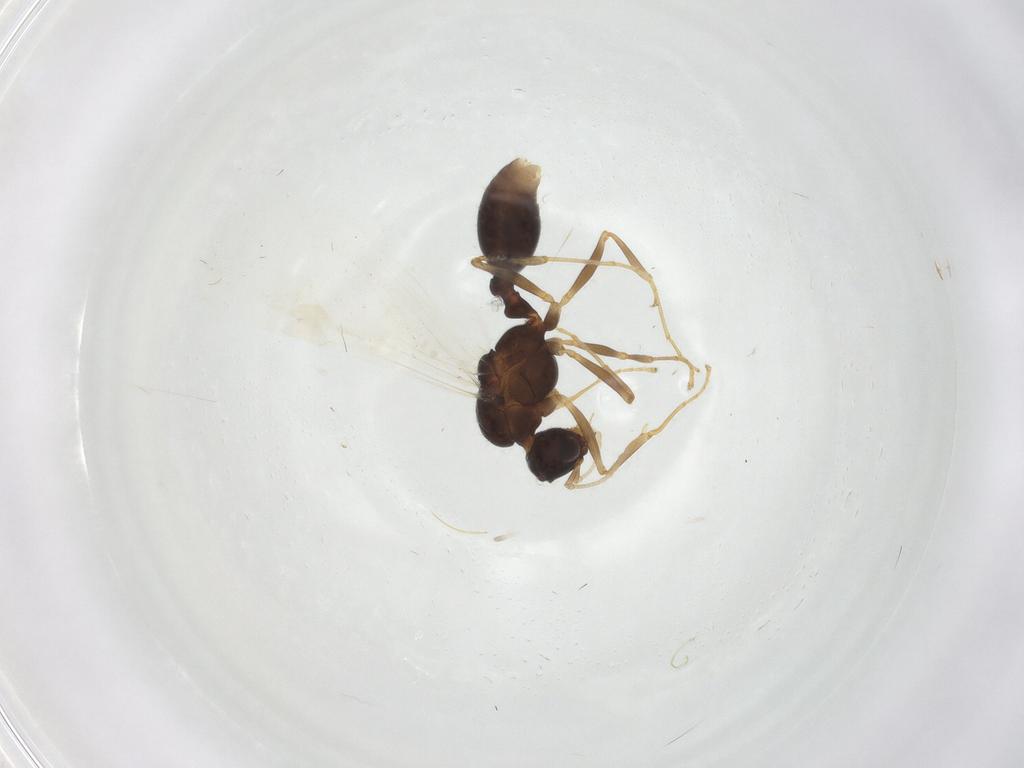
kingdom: Animalia
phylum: Arthropoda
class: Insecta
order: Hymenoptera
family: Formicidae
